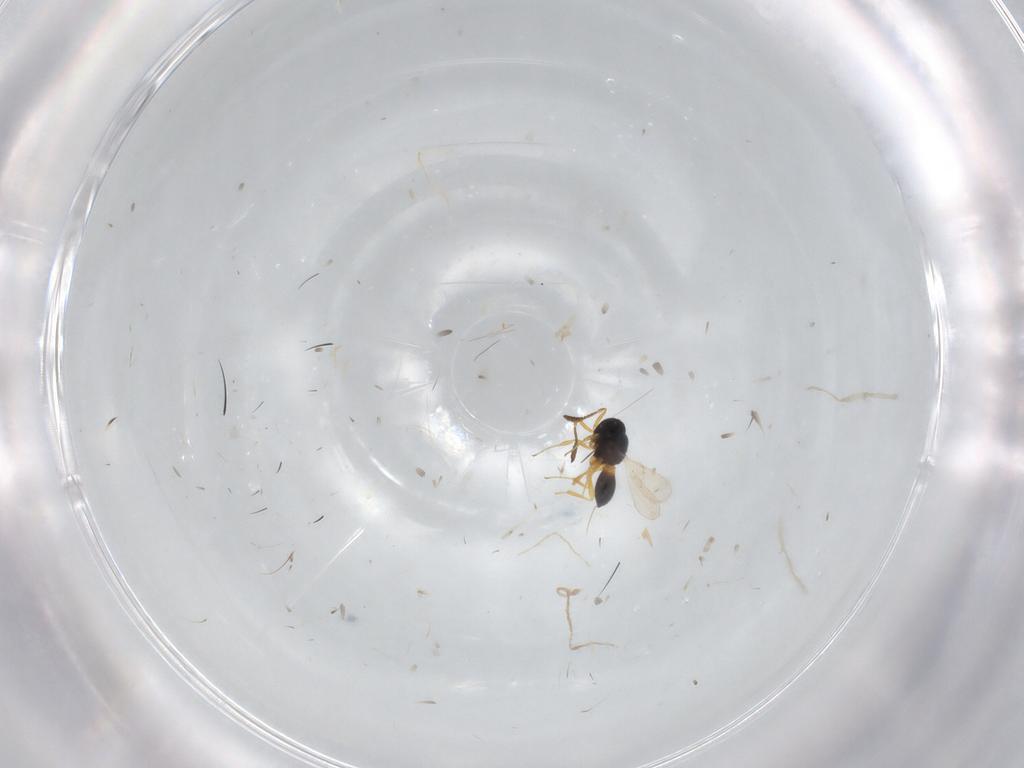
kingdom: Animalia
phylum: Arthropoda
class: Insecta
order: Hymenoptera
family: Scelionidae
